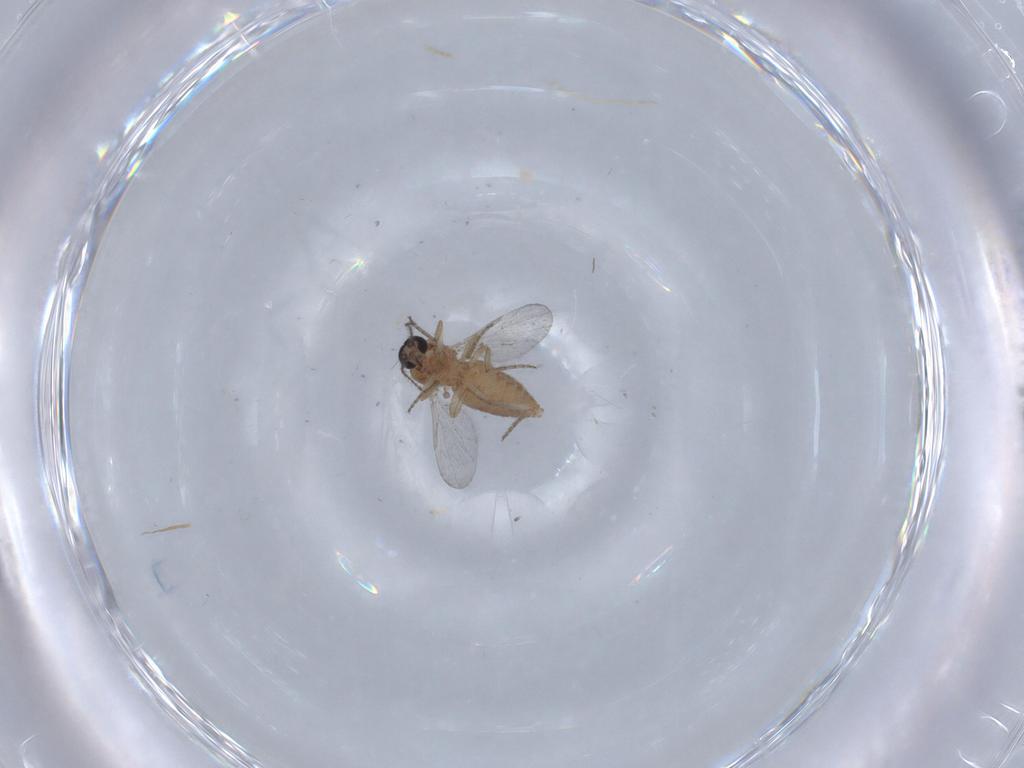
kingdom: Animalia
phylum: Arthropoda
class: Insecta
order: Diptera
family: Ceratopogonidae
